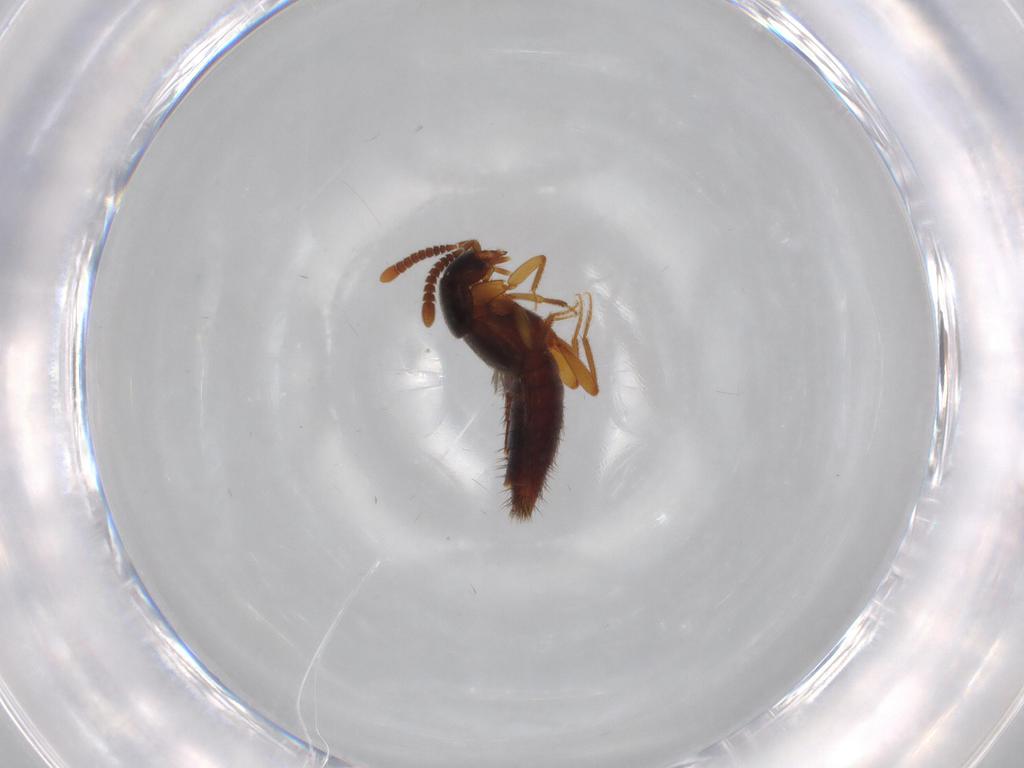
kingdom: Animalia
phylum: Arthropoda
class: Insecta
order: Coleoptera
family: Staphylinidae
